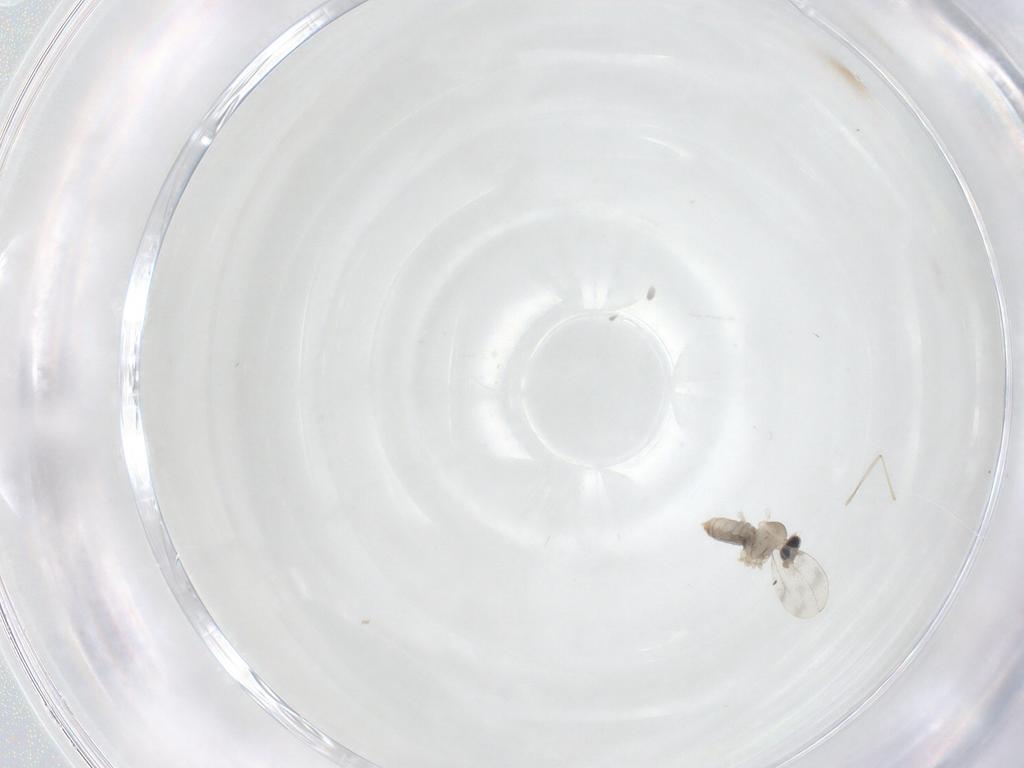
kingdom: Animalia
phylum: Arthropoda
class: Insecta
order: Diptera
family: Cecidomyiidae
